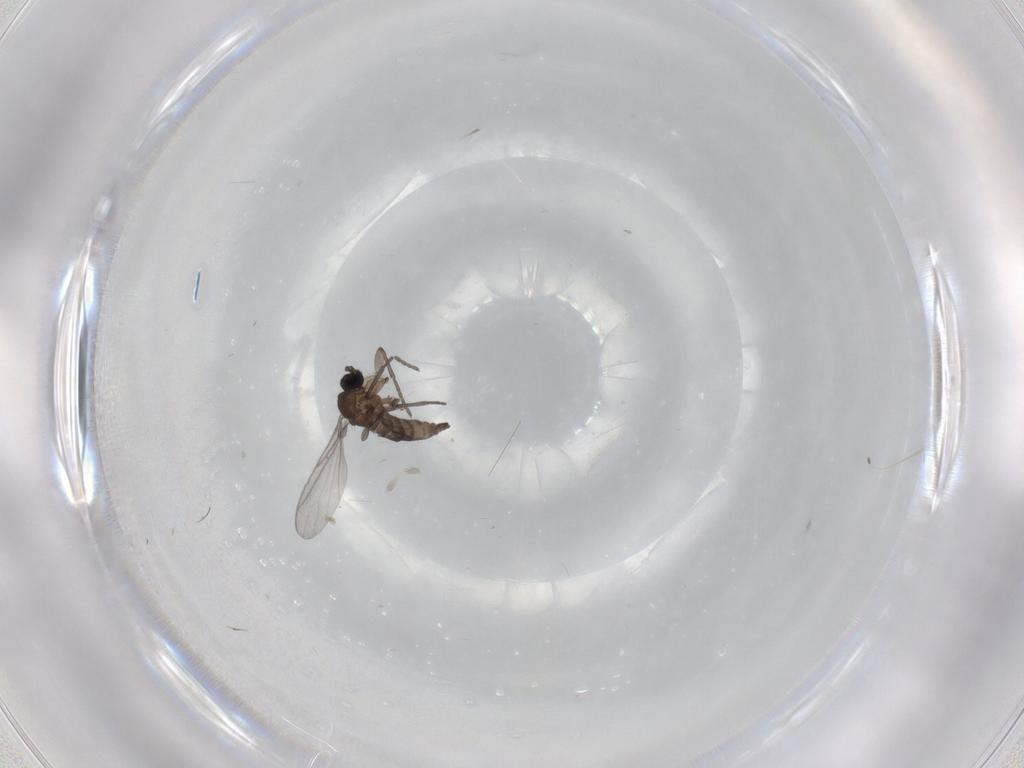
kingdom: Animalia
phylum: Arthropoda
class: Insecta
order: Diptera
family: Sciaridae
